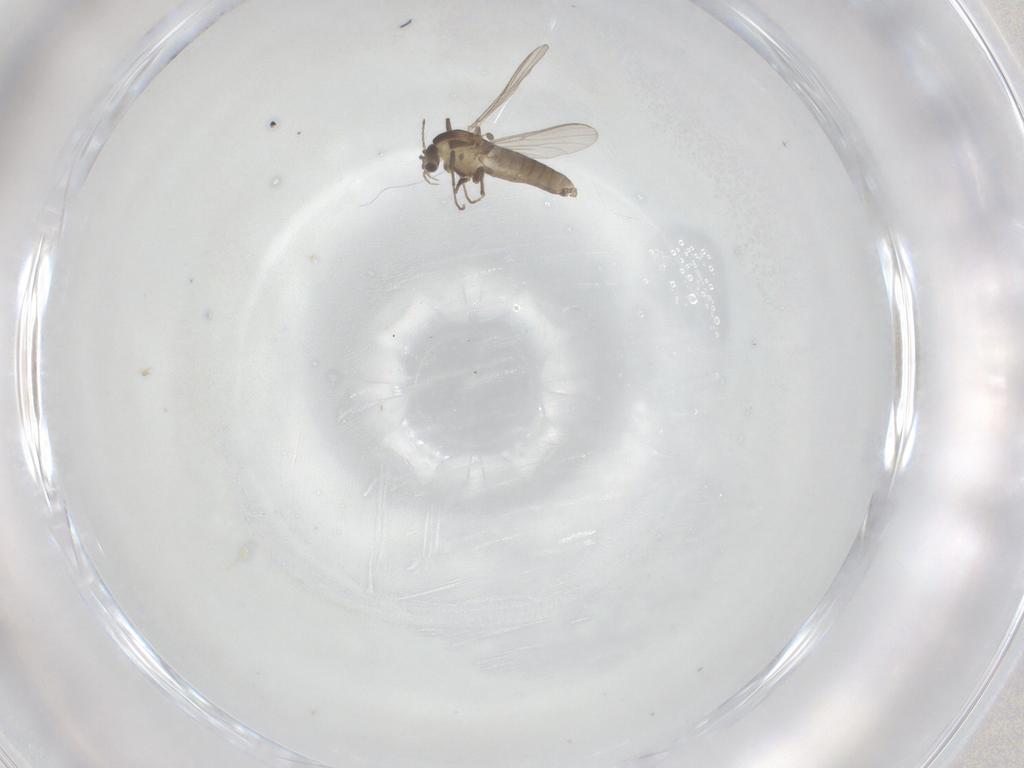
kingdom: Animalia
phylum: Arthropoda
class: Insecta
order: Diptera
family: Chironomidae
